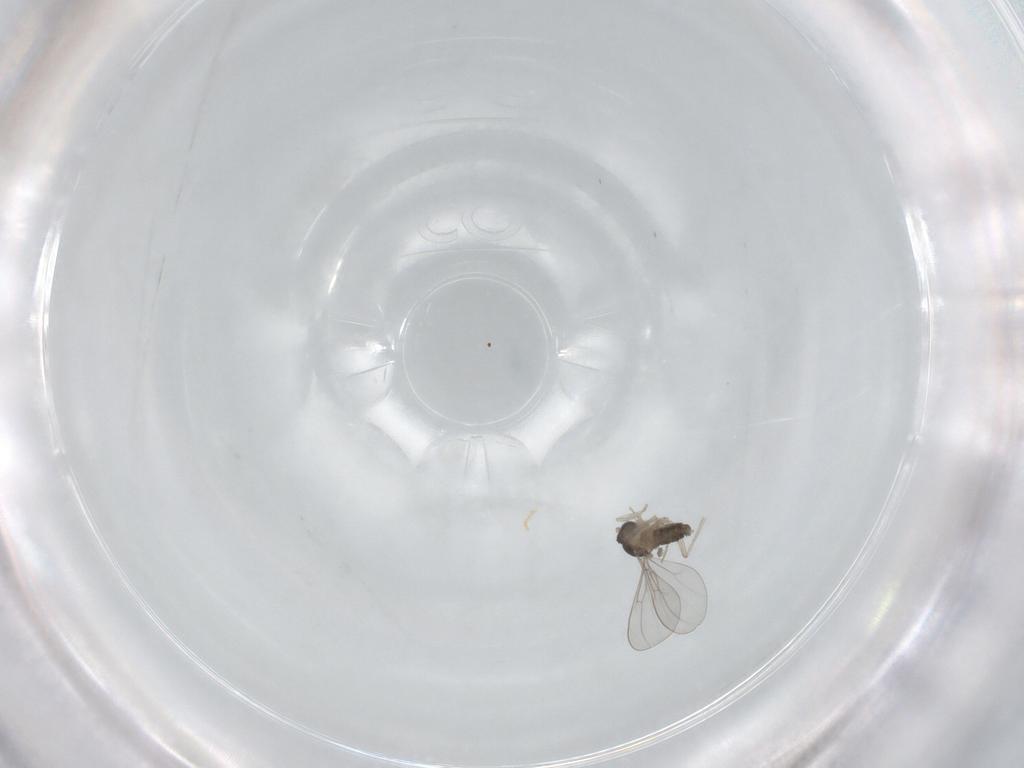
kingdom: Animalia
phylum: Arthropoda
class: Insecta
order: Diptera
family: Cecidomyiidae
